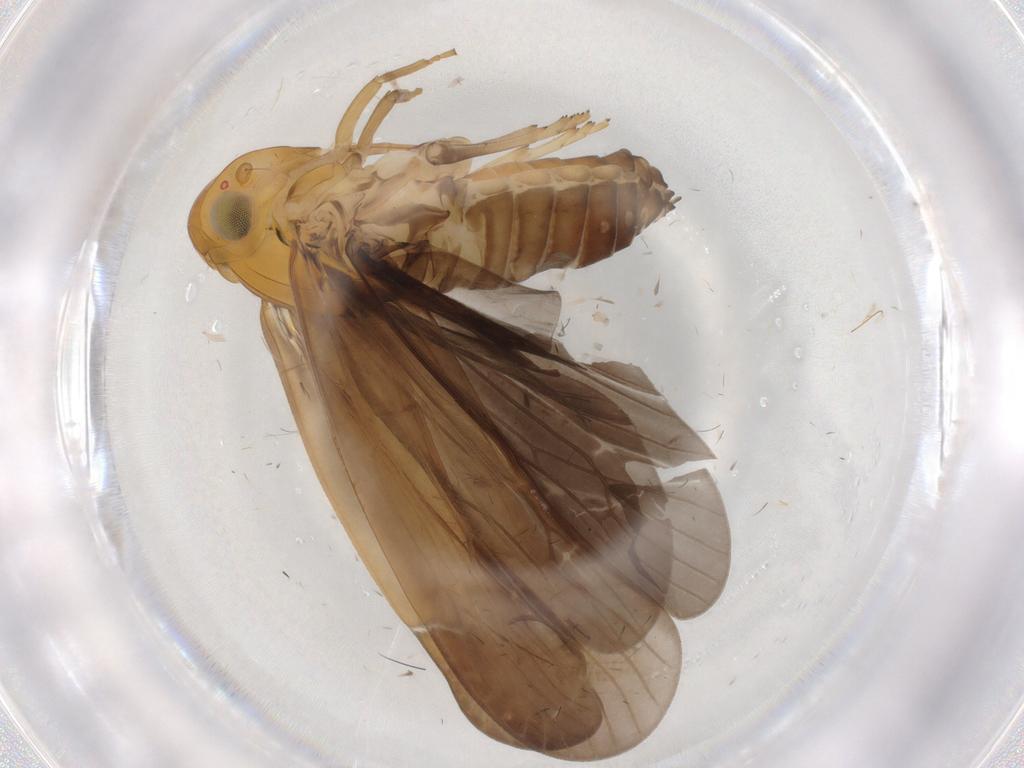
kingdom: Animalia
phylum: Arthropoda
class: Insecta
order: Hemiptera
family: Achilidae
